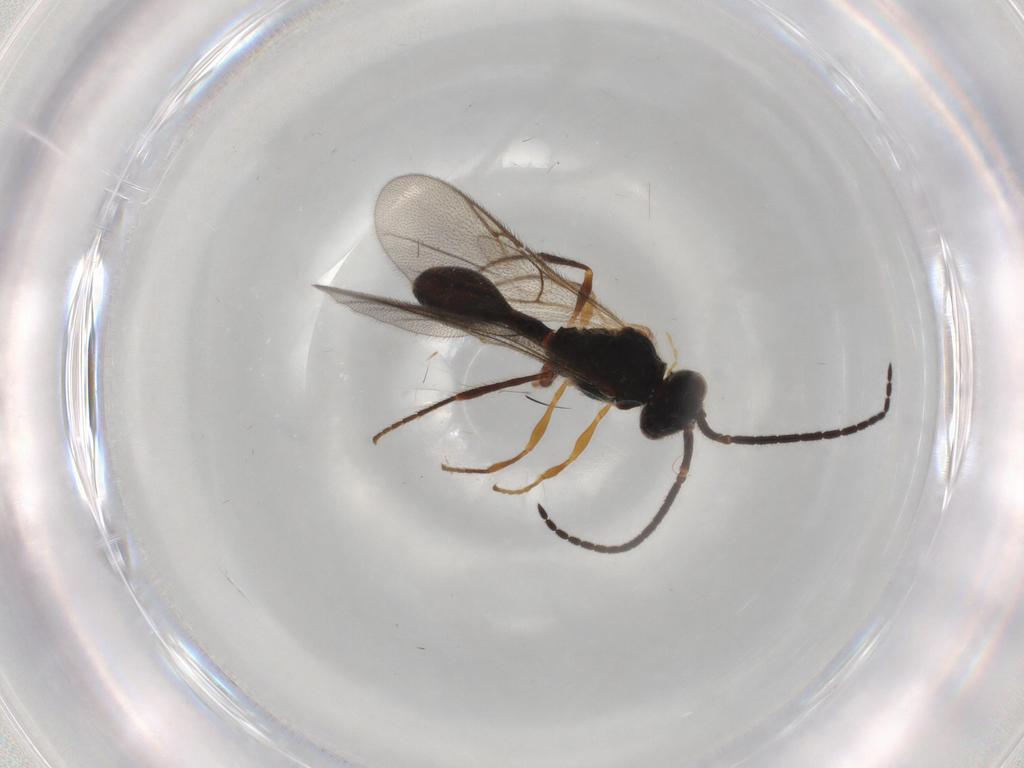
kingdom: Animalia
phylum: Arthropoda
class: Insecta
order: Hymenoptera
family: Diapriidae
